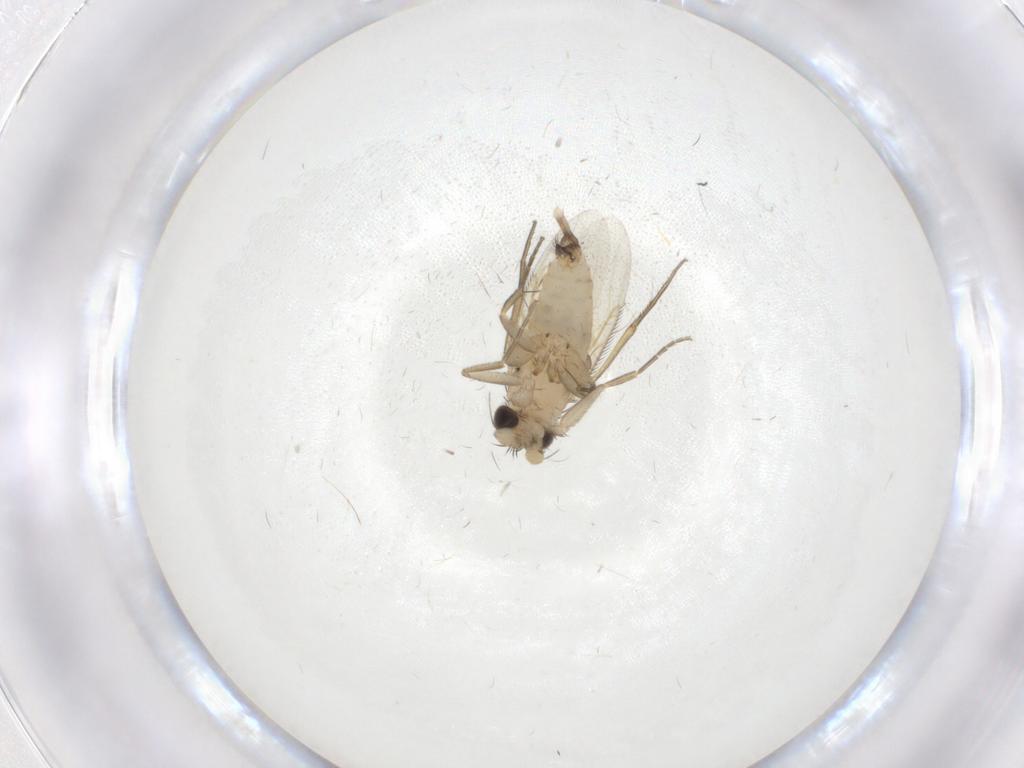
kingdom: Animalia
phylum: Arthropoda
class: Insecta
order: Diptera
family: Phoridae
